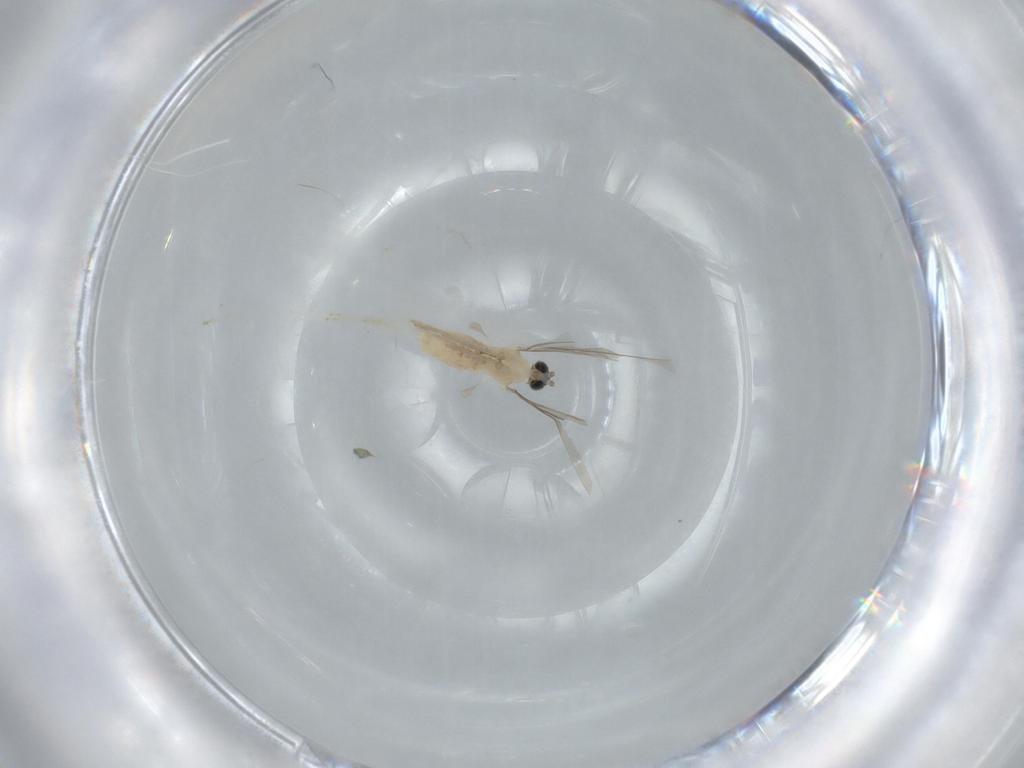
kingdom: Animalia
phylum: Arthropoda
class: Insecta
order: Diptera
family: Cecidomyiidae
